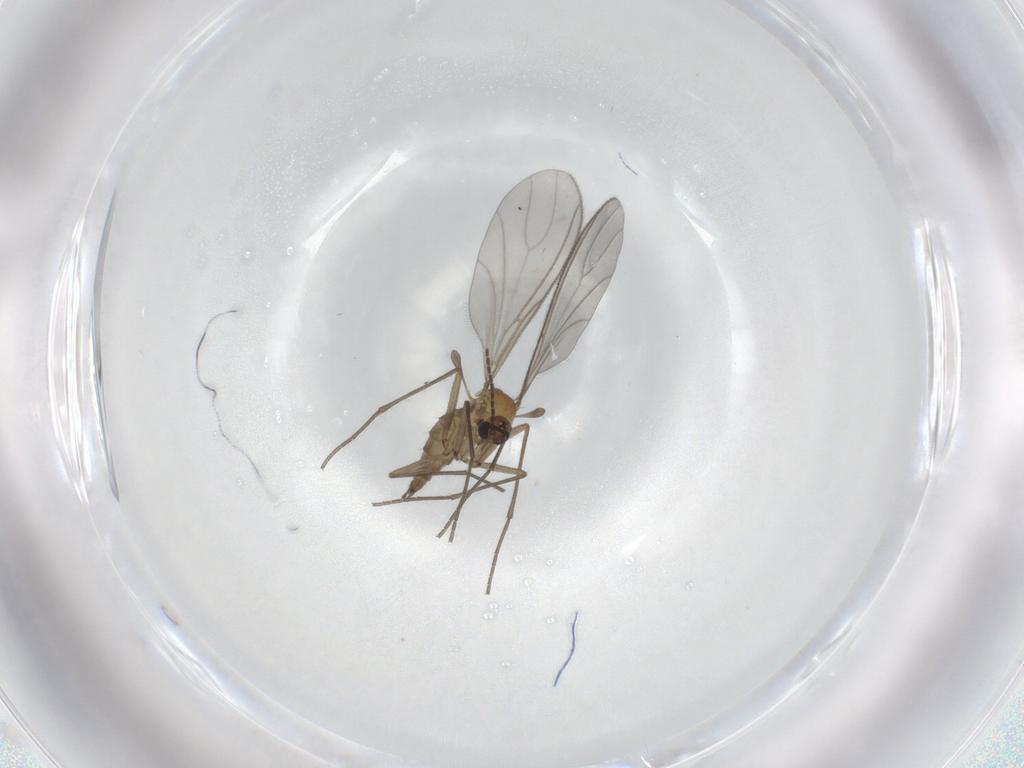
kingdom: Animalia
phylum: Arthropoda
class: Insecta
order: Diptera
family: Sciaridae
